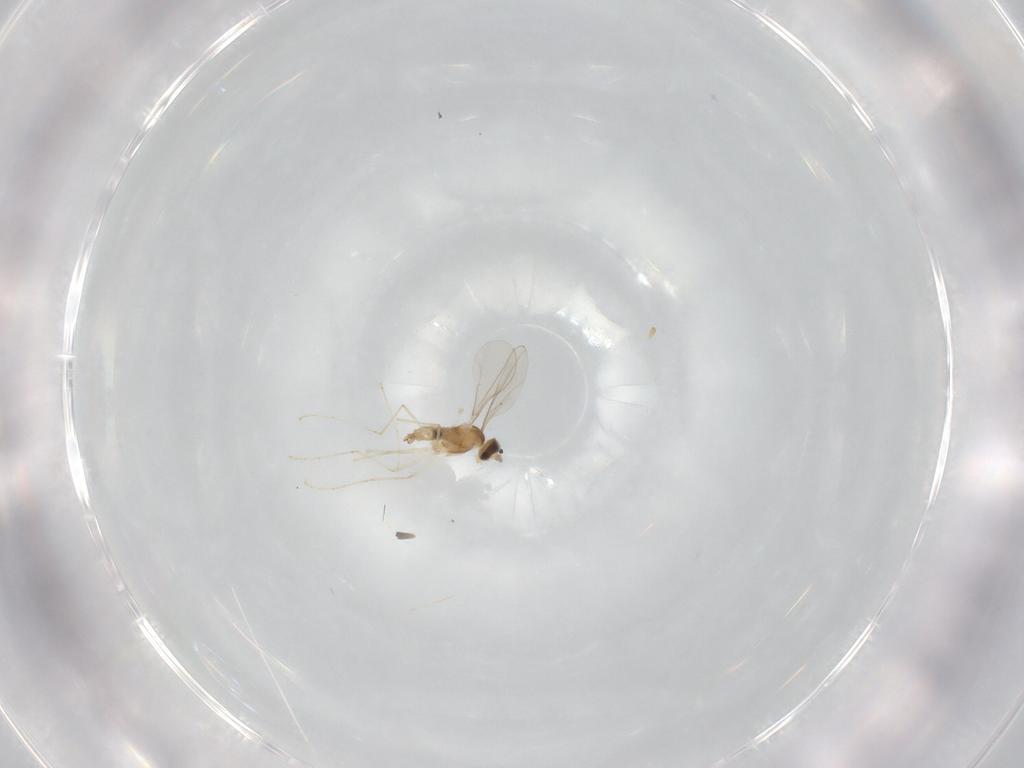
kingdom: Animalia
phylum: Arthropoda
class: Insecta
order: Diptera
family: Cecidomyiidae
